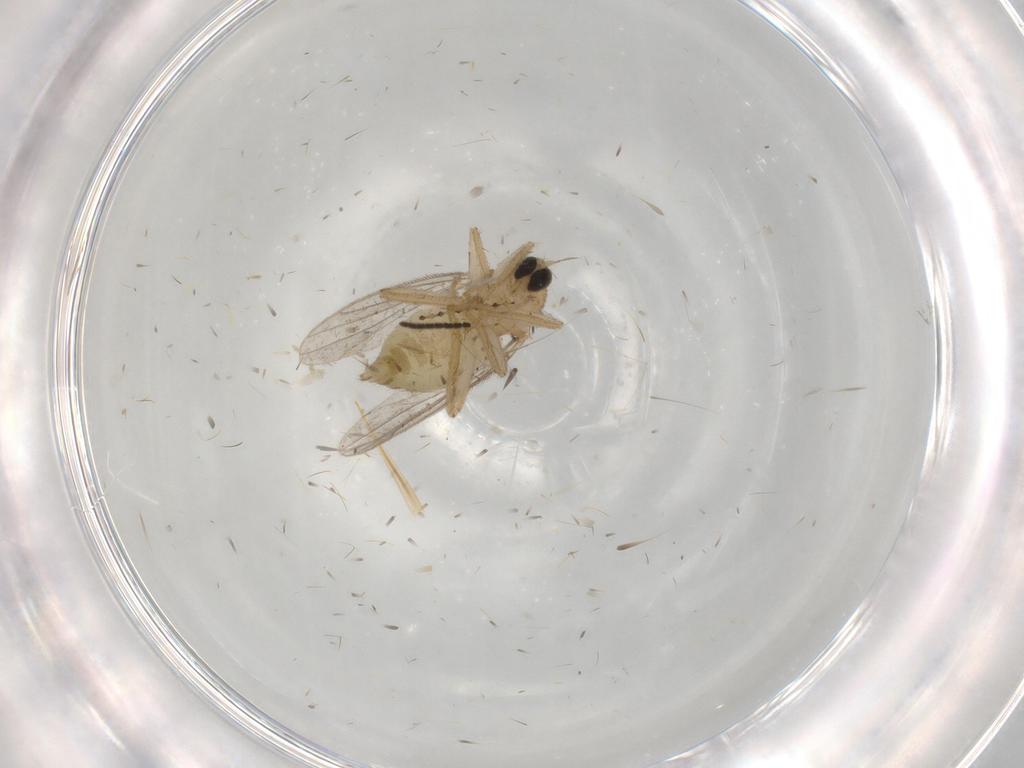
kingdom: Animalia
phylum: Arthropoda
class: Insecta
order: Diptera
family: Hybotidae
